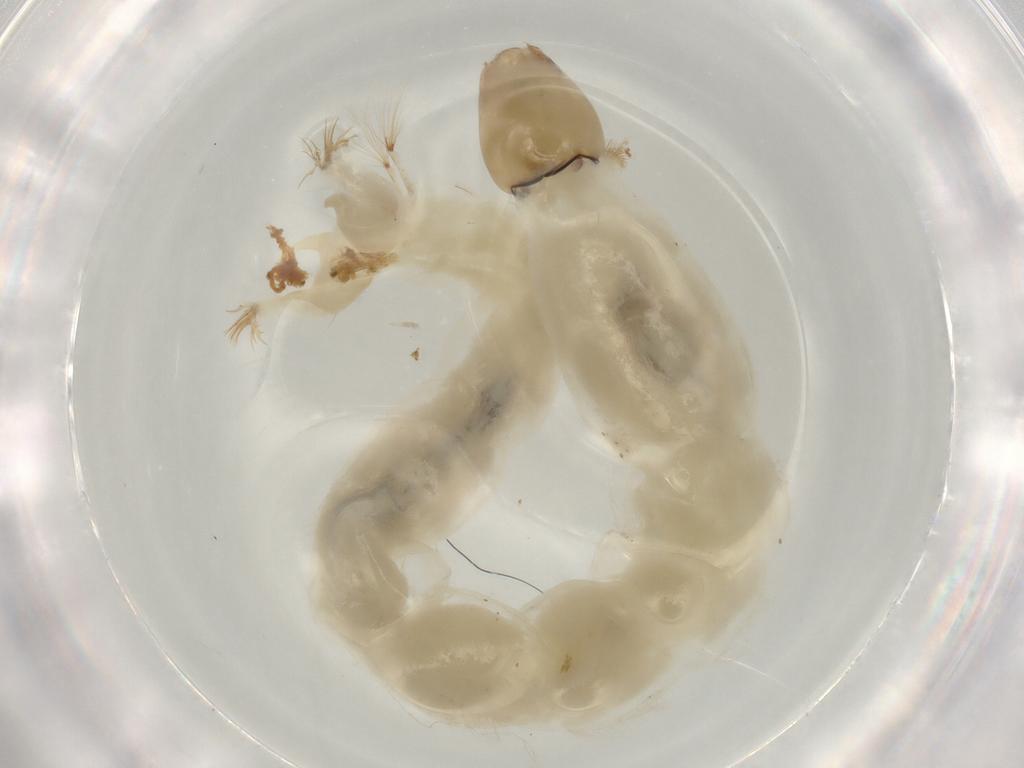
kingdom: Animalia
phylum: Arthropoda
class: Insecta
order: Diptera
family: Chironomidae
